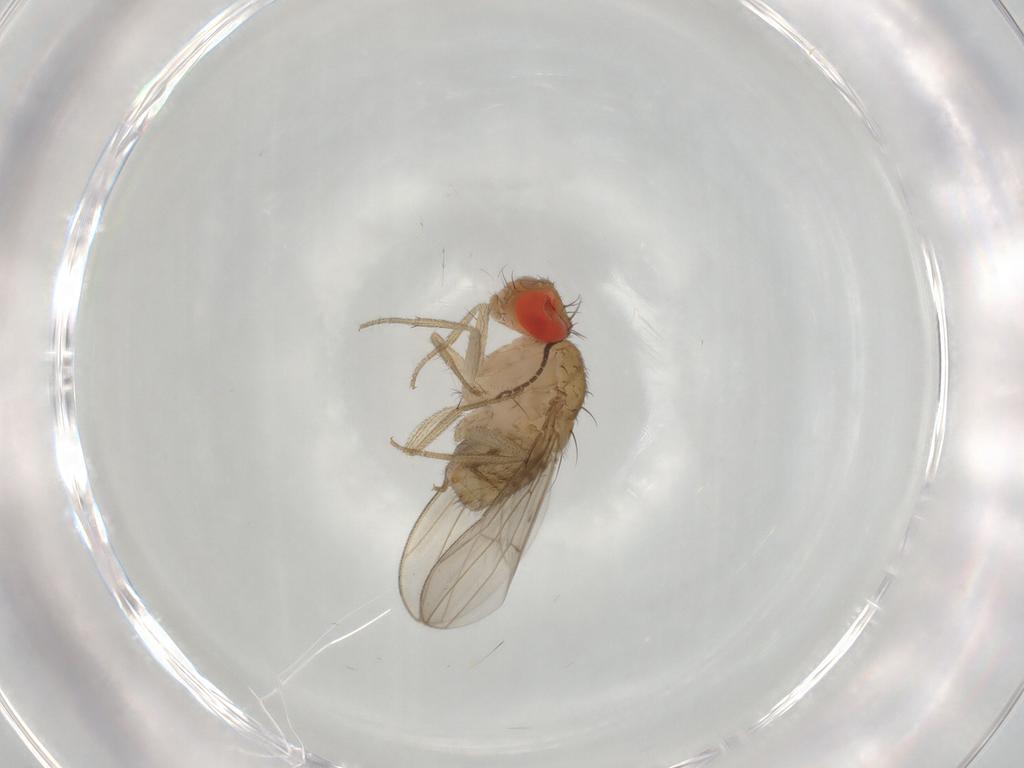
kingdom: Animalia
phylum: Arthropoda
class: Insecta
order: Diptera
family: Drosophilidae
